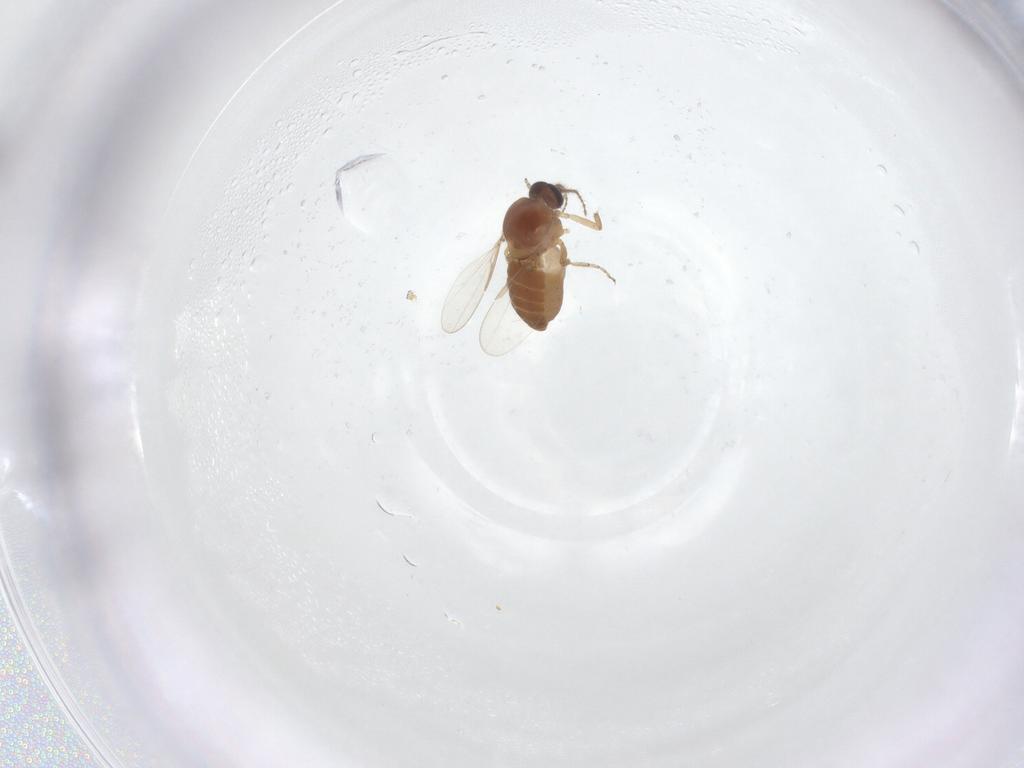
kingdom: Animalia
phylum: Arthropoda
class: Insecta
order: Diptera
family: Ceratopogonidae
